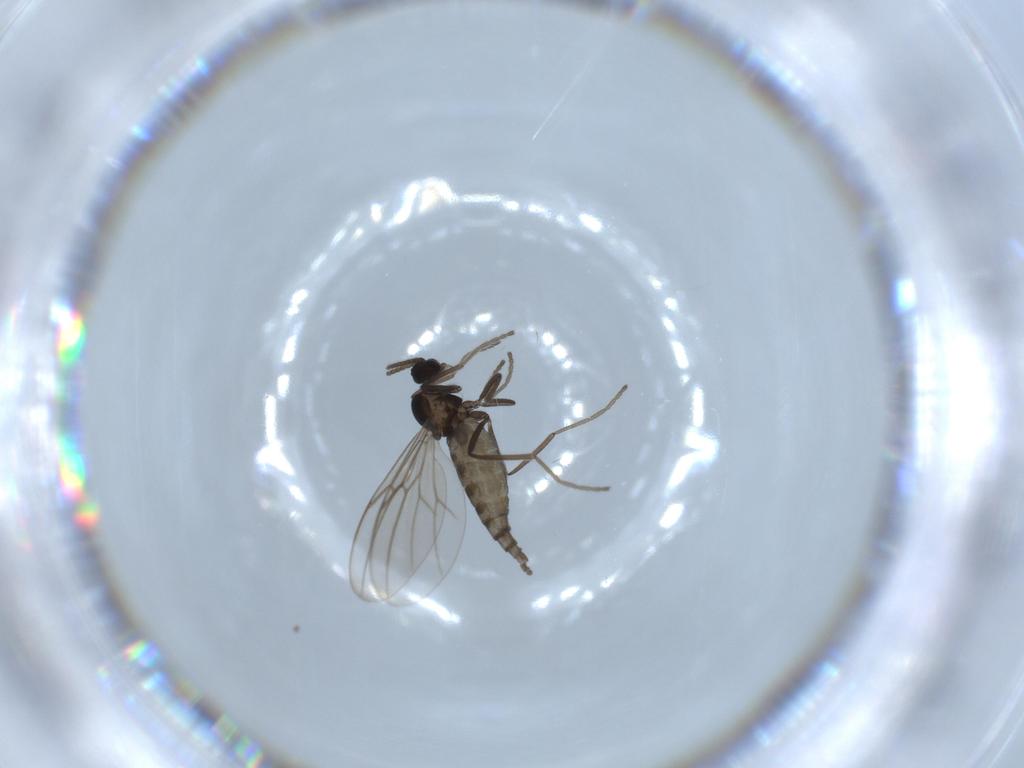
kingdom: Animalia
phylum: Arthropoda
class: Insecta
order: Diptera
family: Cecidomyiidae
